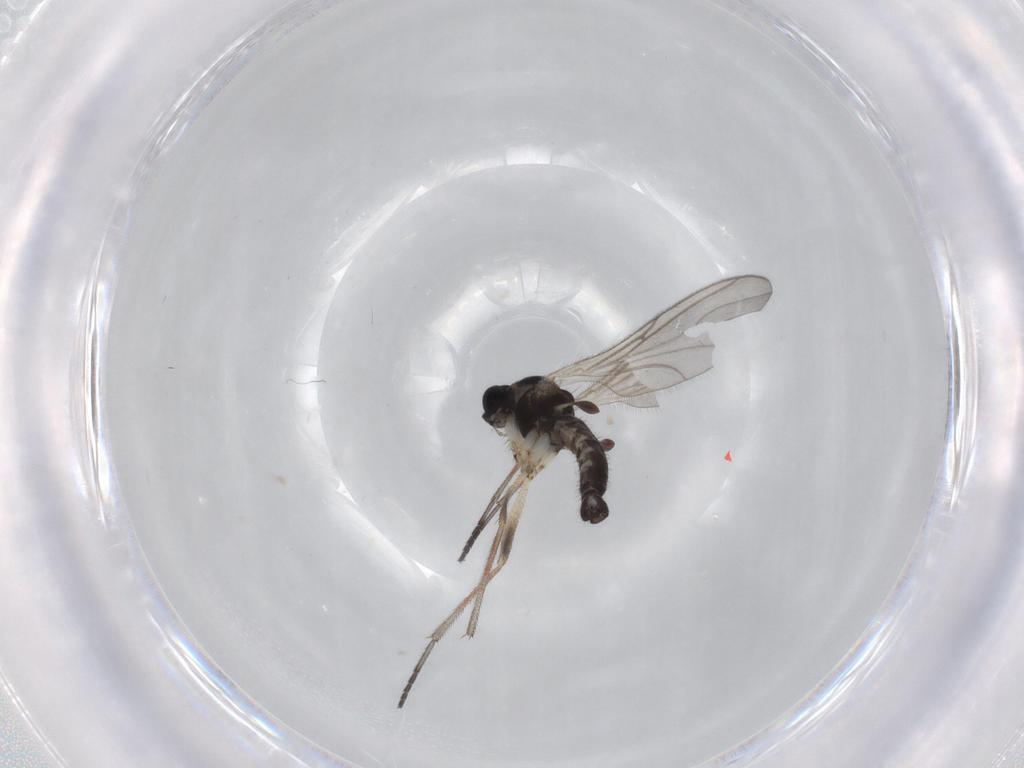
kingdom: Animalia
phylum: Arthropoda
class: Insecta
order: Diptera
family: Sciaridae
